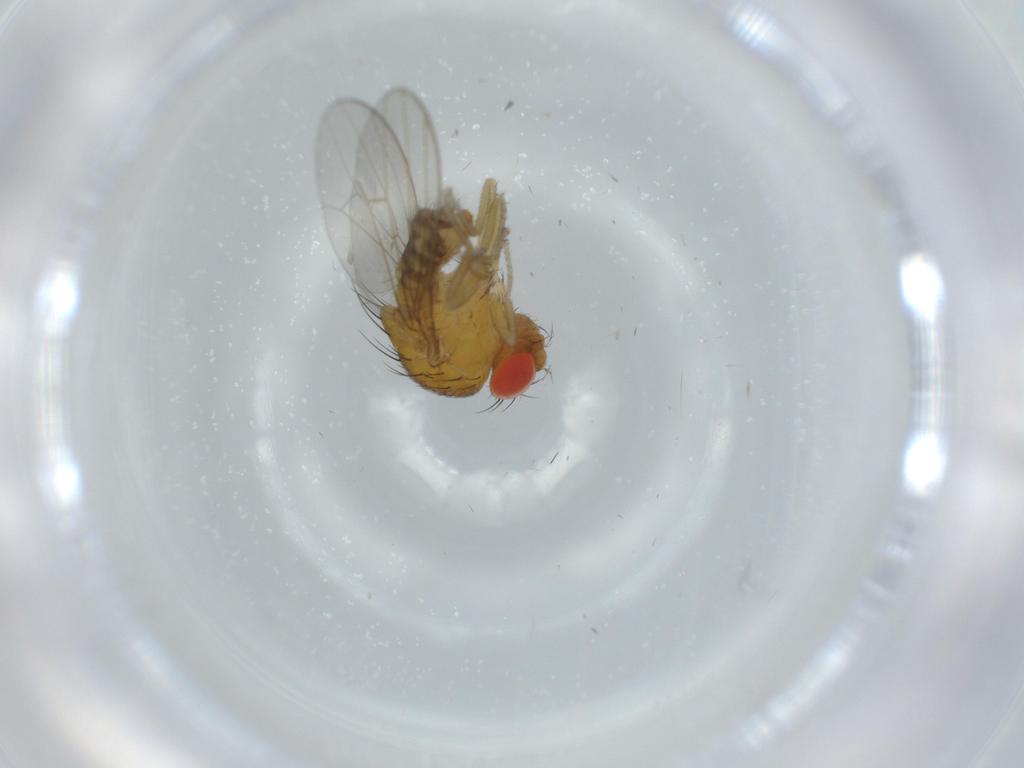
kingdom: Animalia
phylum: Arthropoda
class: Insecta
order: Diptera
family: Drosophilidae
